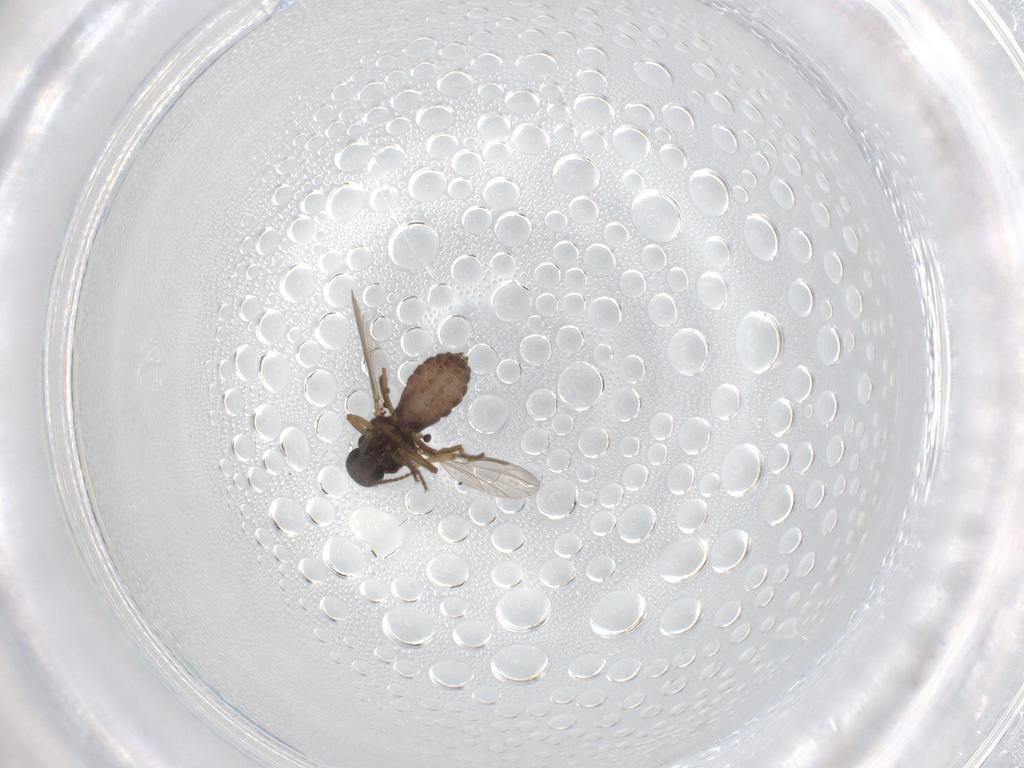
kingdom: Animalia
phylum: Arthropoda
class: Insecta
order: Diptera
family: Ceratopogonidae
